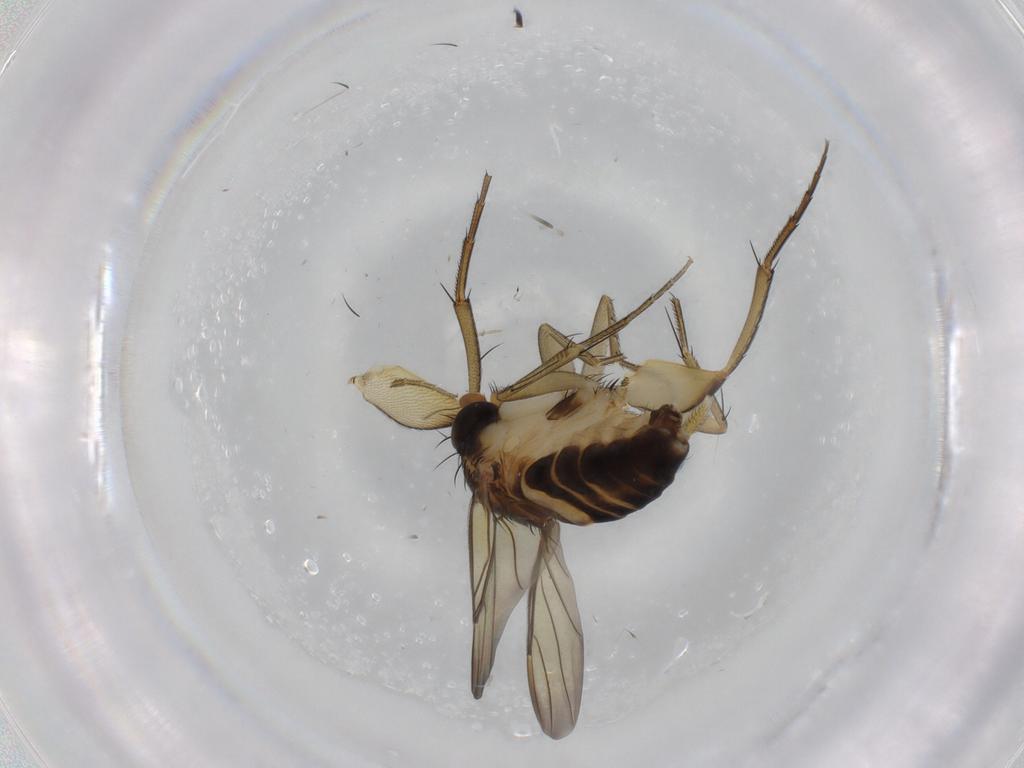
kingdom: Animalia
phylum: Arthropoda
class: Insecta
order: Diptera
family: Phoridae
